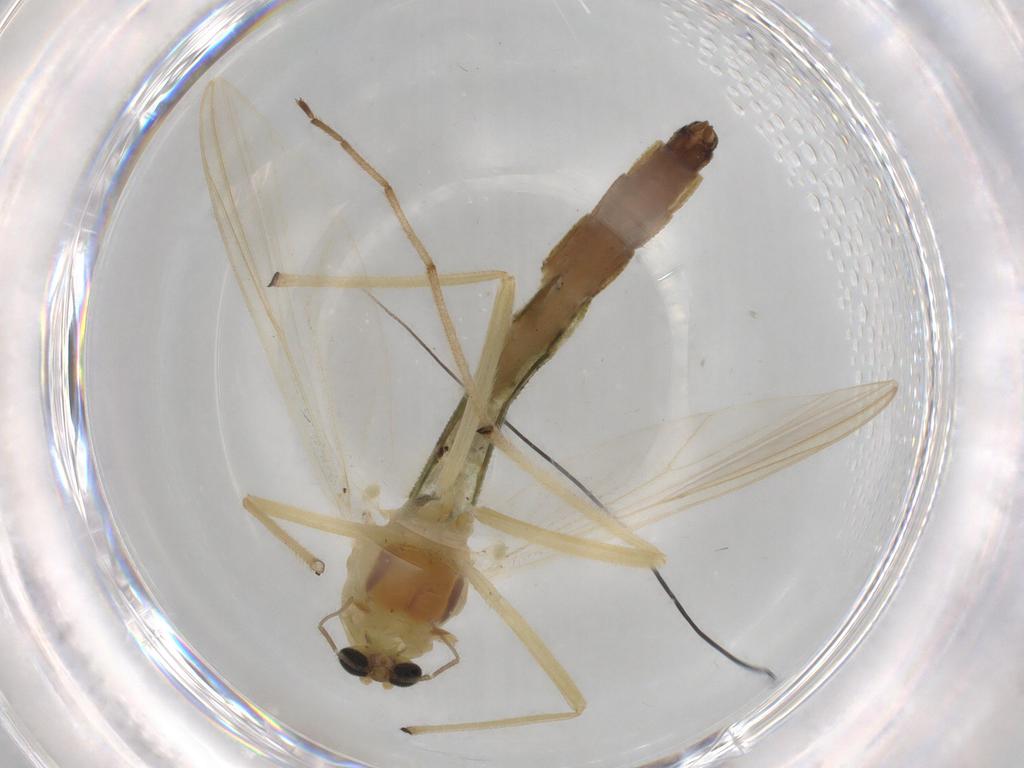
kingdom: Animalia
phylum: Arthropoda
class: Insecta
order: Diptera
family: Chironomidae
